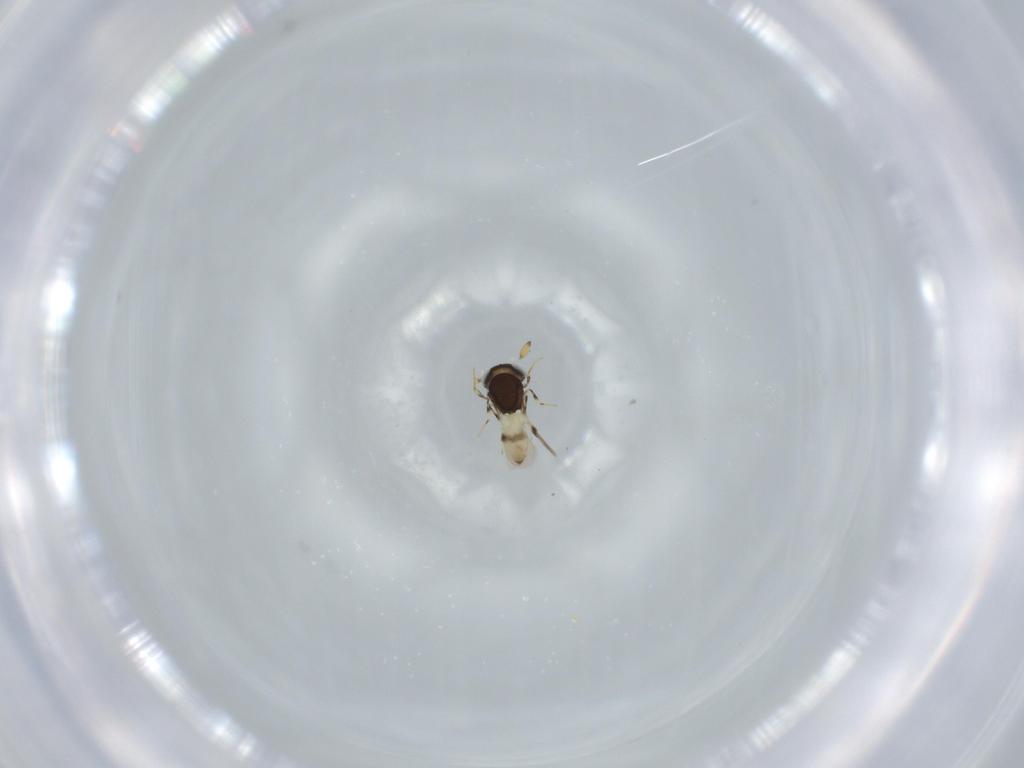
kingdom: Animalia
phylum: Arthropoda
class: Insecta
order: Hymenoptera
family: Scelionidae
